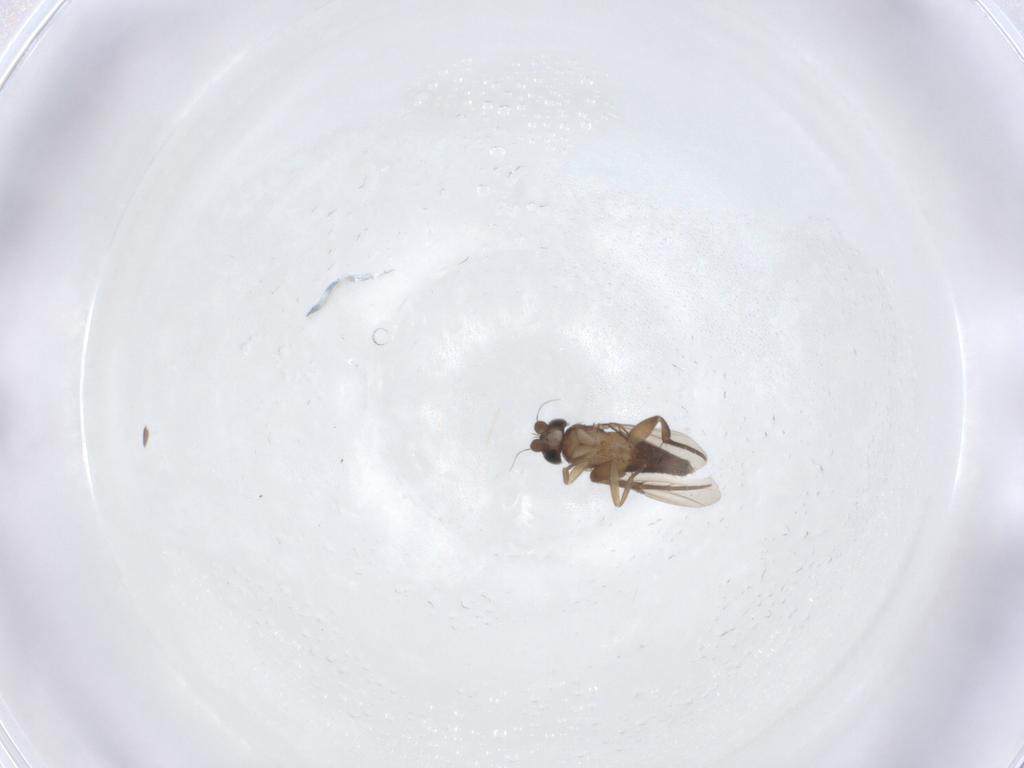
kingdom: Animalia
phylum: Arthropoda
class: Insecta
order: Diptera
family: Phoridae
